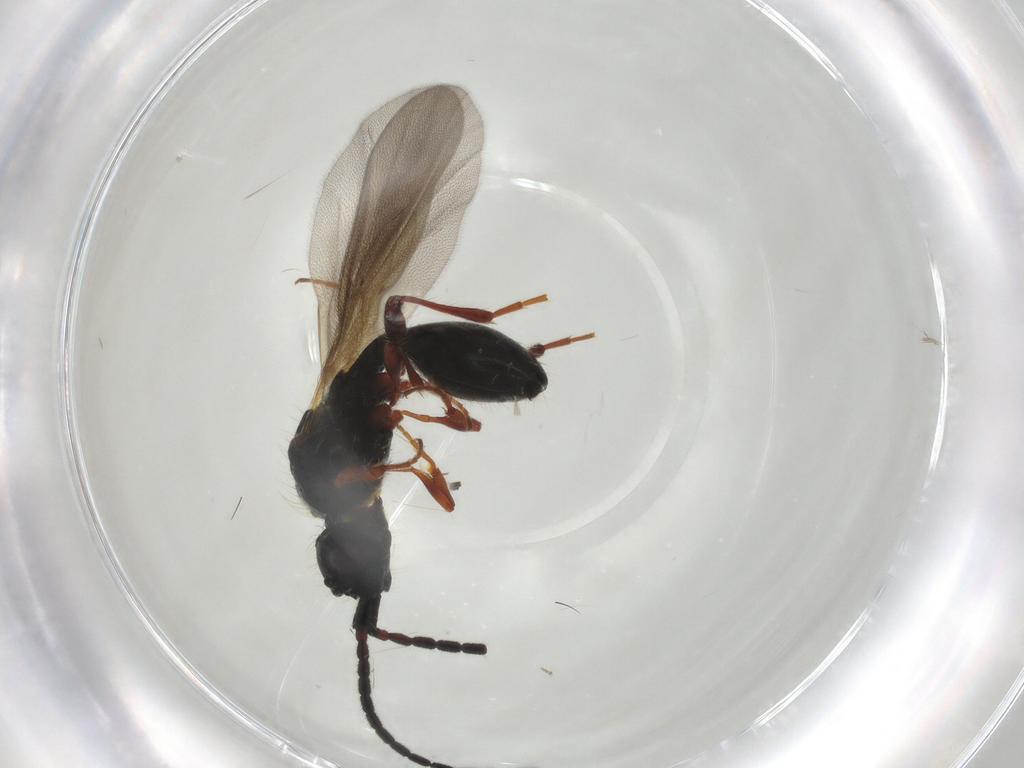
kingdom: Animalia
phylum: Arthropoda
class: Insecta
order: Hymenoptera
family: Diapriidae
